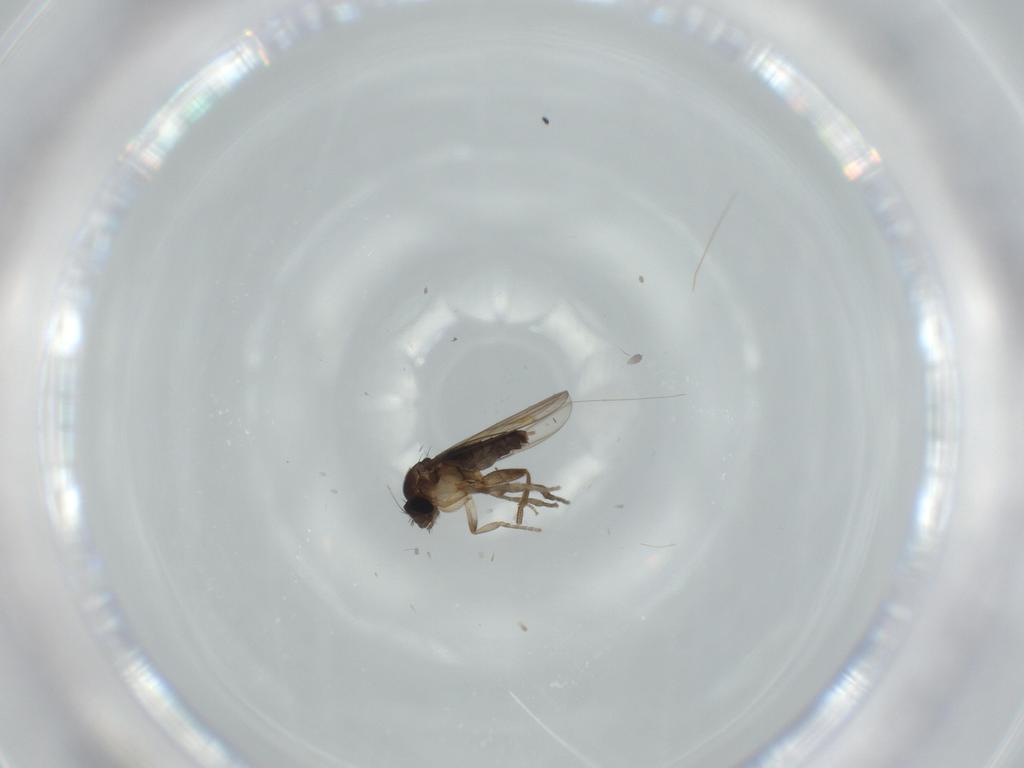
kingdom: Animalia
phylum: Arthropoda
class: Insecta
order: Diptera
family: Phoridae
